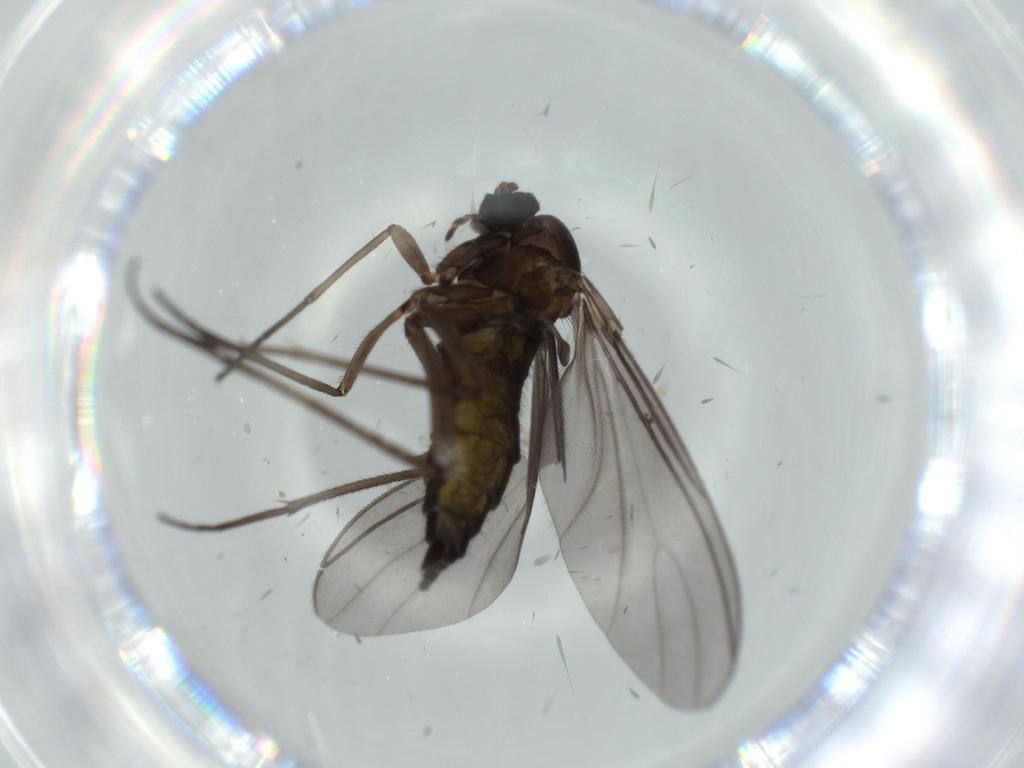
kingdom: Animalia
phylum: Arthropoda
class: Insecta
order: Diptera
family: Sciaridae
